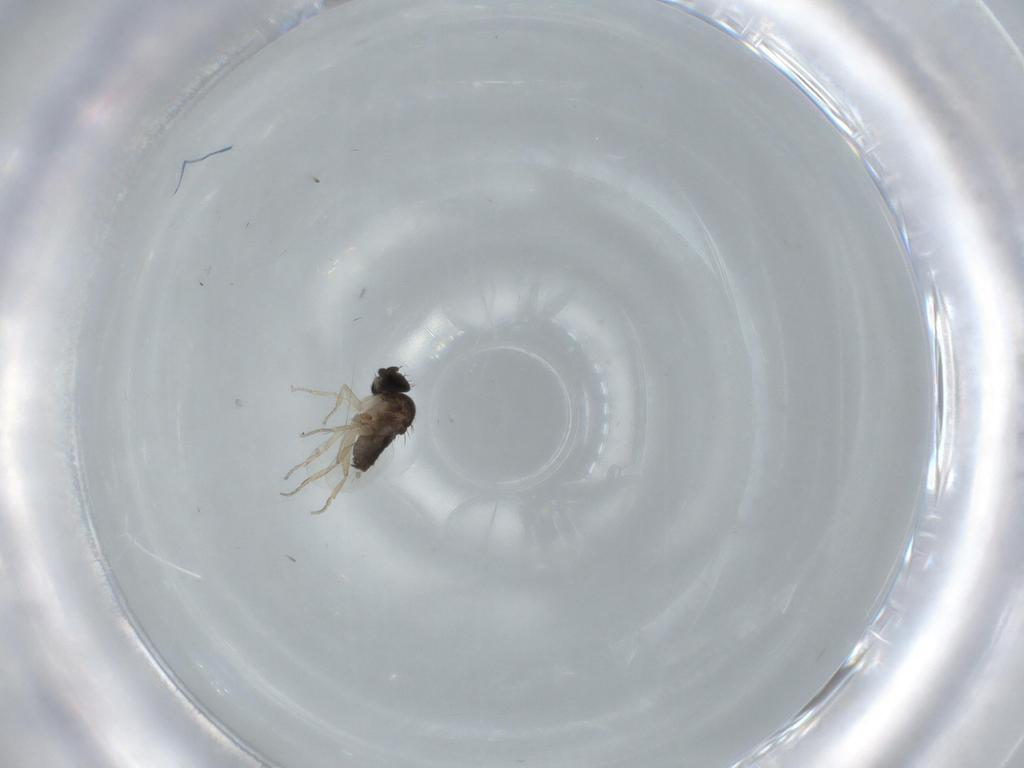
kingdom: Animalia
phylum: Arthropoda
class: Insecta
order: Diptera
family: Phoridae
